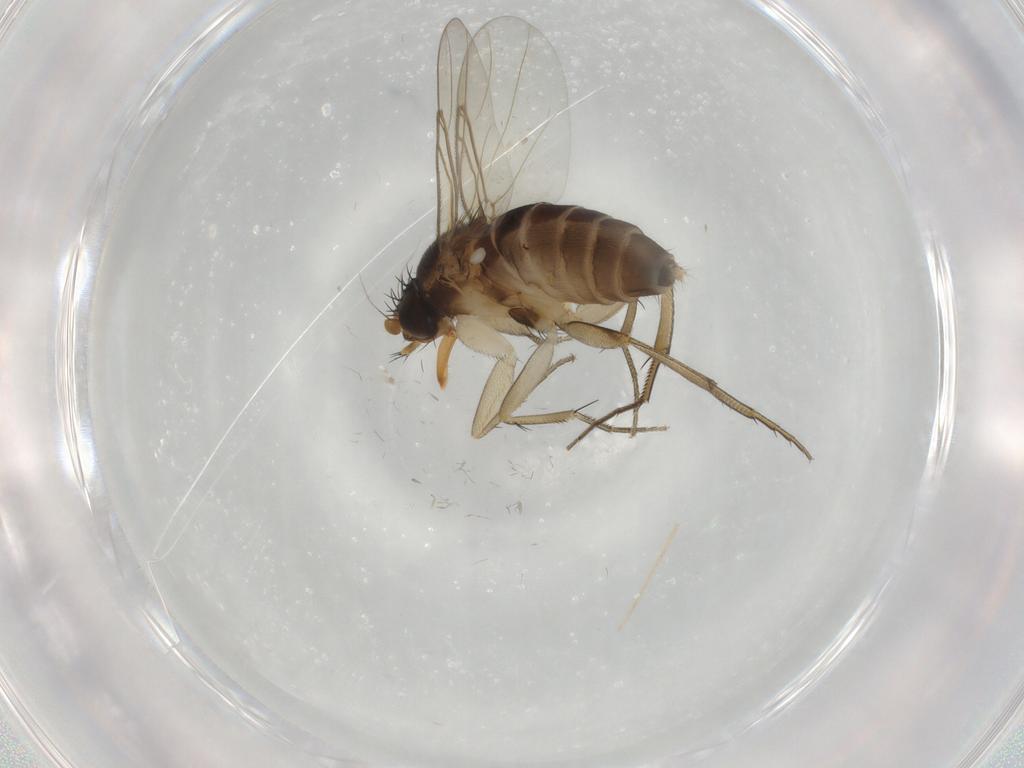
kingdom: Animalia
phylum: Arthropoda
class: Insecta
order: Diptera
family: Phoridae
